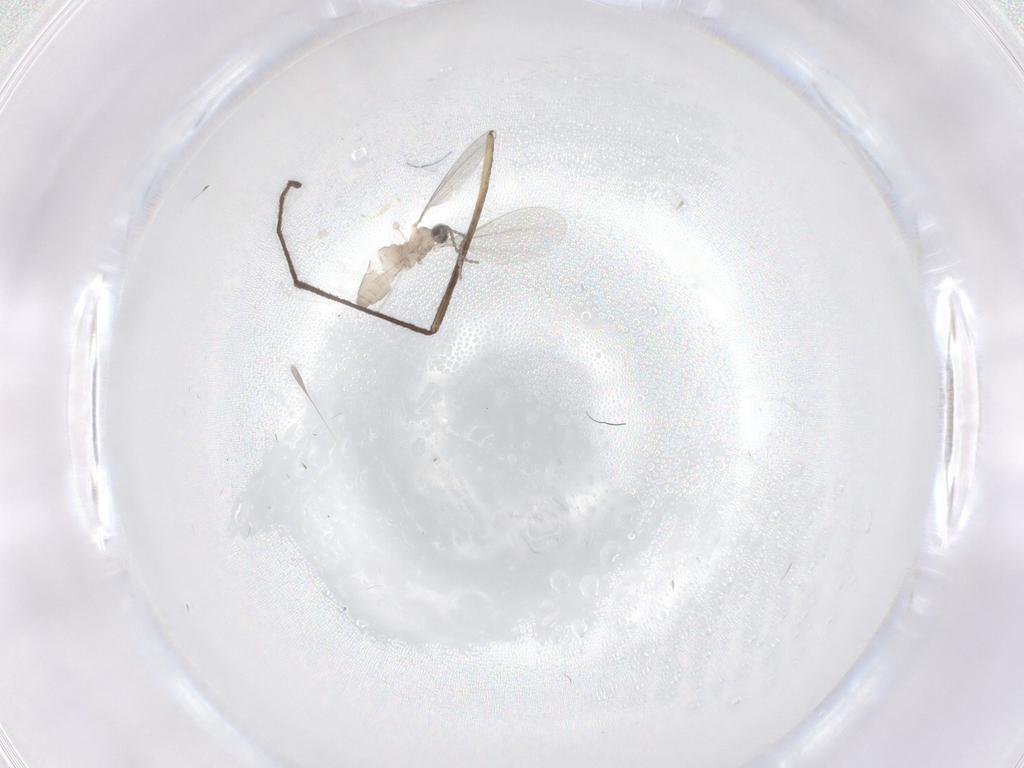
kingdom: Animalia
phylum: Arthropoda
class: Insecta
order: Diptera
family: Cecidomyiidae
